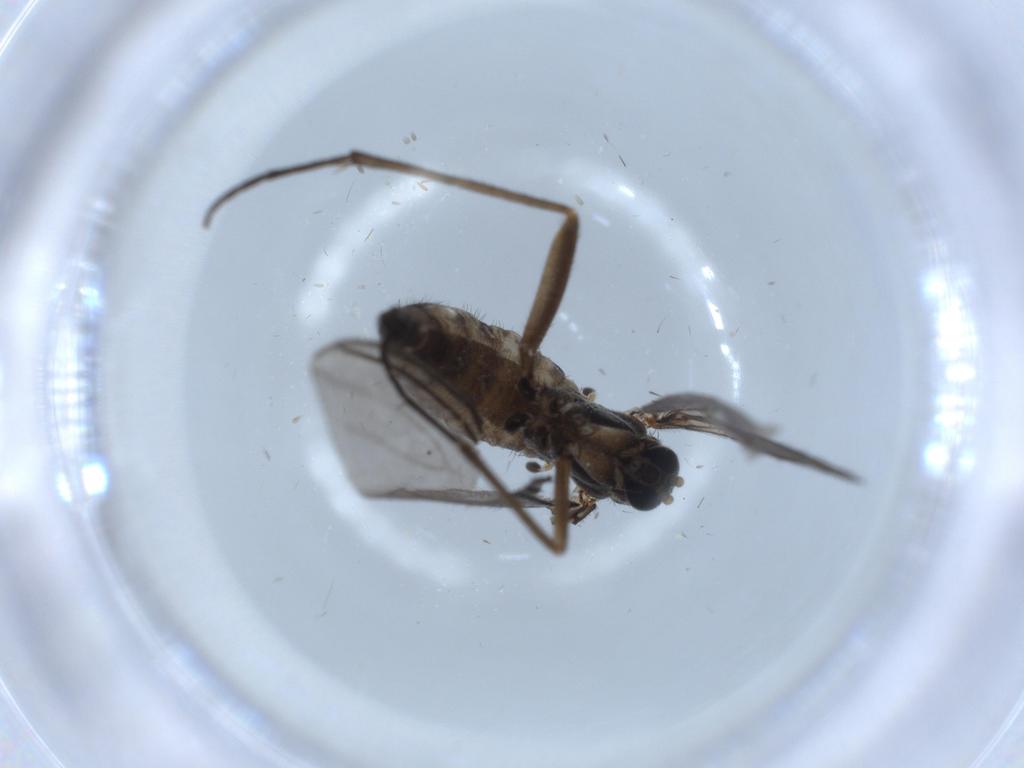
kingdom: Animalia
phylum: Arthropoda
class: Insecta
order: Diptera
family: Sciaridae
